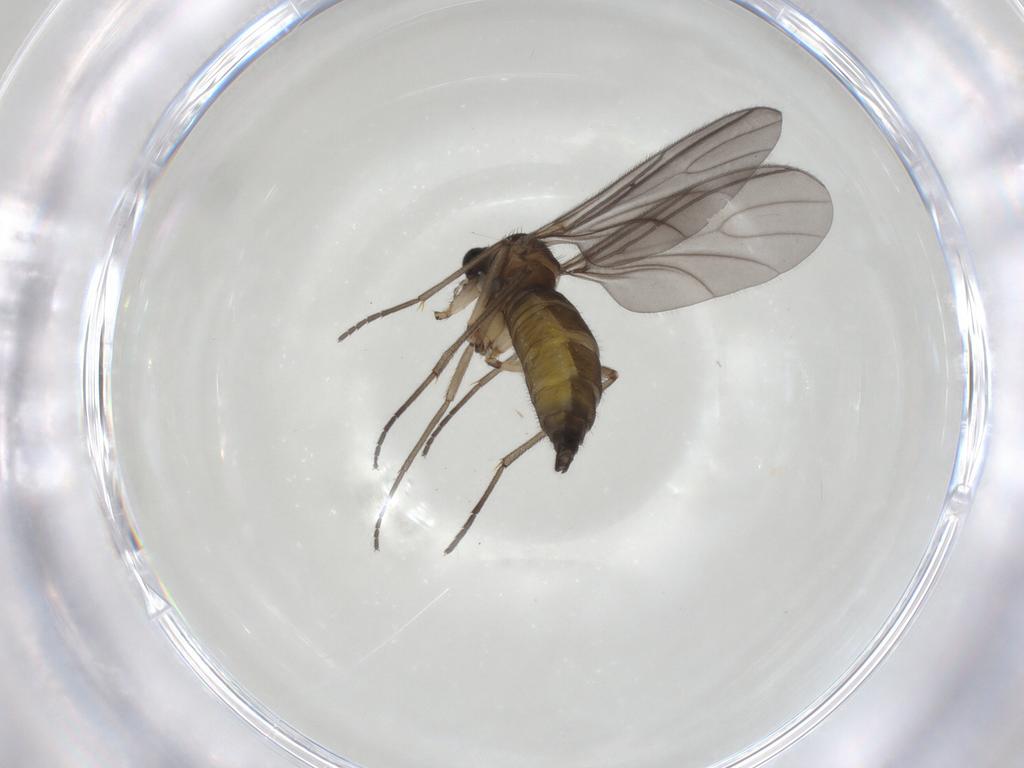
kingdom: Animalia
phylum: Arthropoda
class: Insecta
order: Diptera
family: Sciaridae
